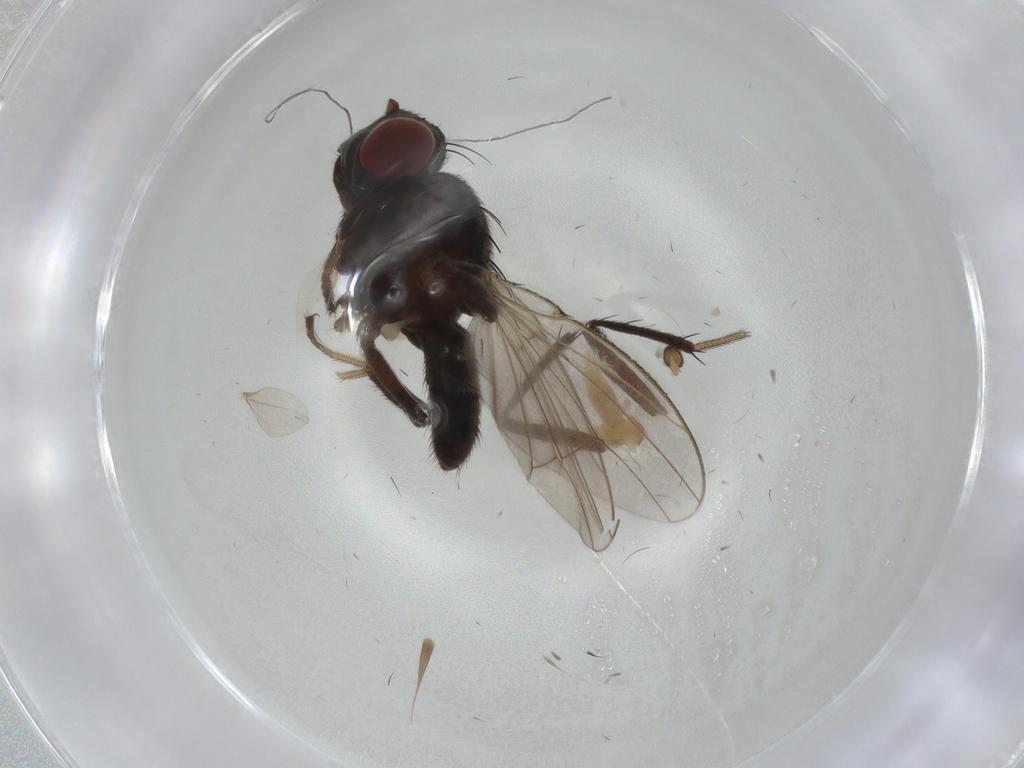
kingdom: Animalia
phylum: Arthropoda
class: Insecta
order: Diptera
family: Ephydridae
